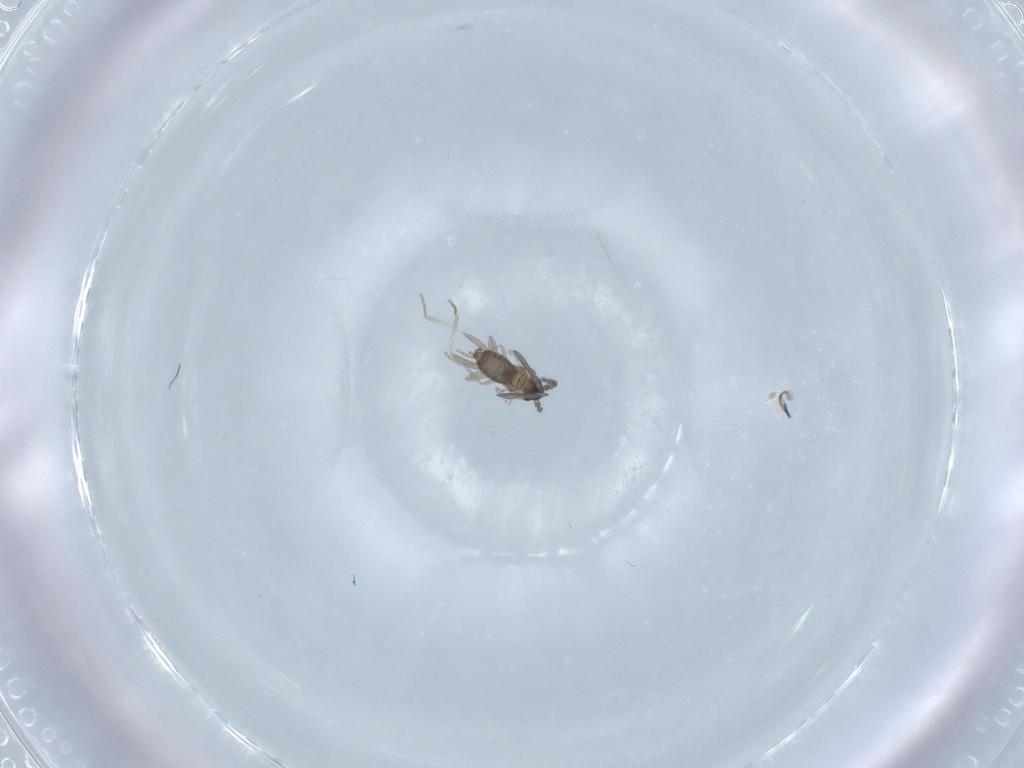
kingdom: Animalia
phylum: Arthropoda
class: Insecta
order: Diptera
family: Cecidomyiidae
